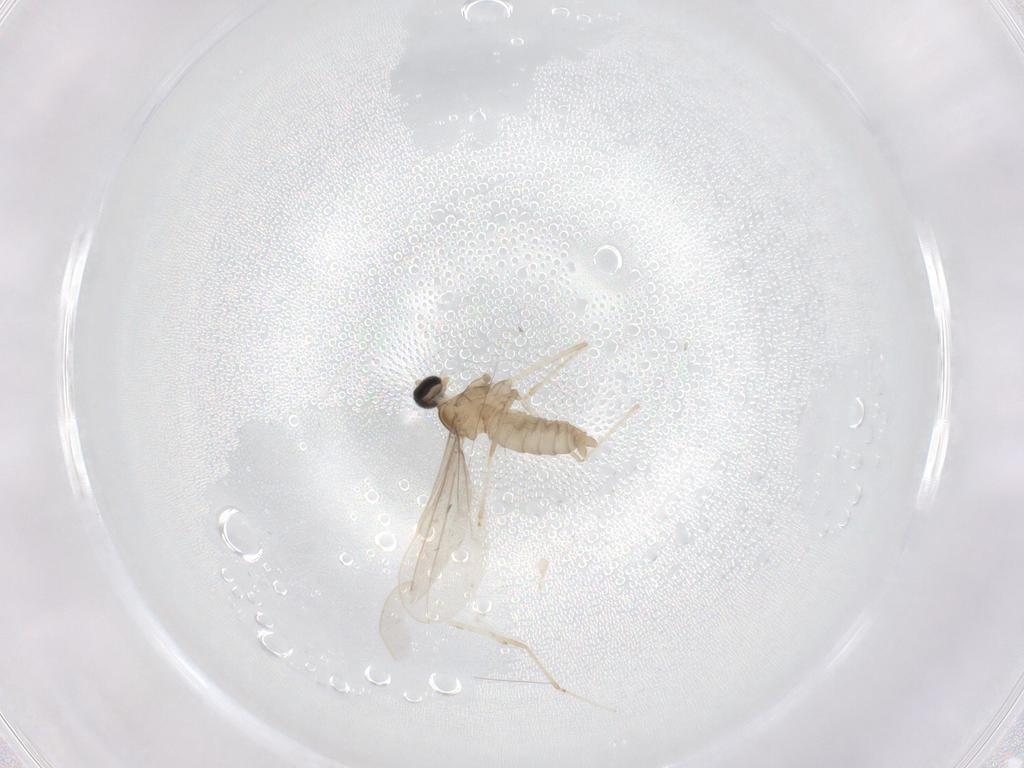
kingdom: Animalia
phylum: Arthropoda
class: Insecta
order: Diptera
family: Cecidomyiidae
